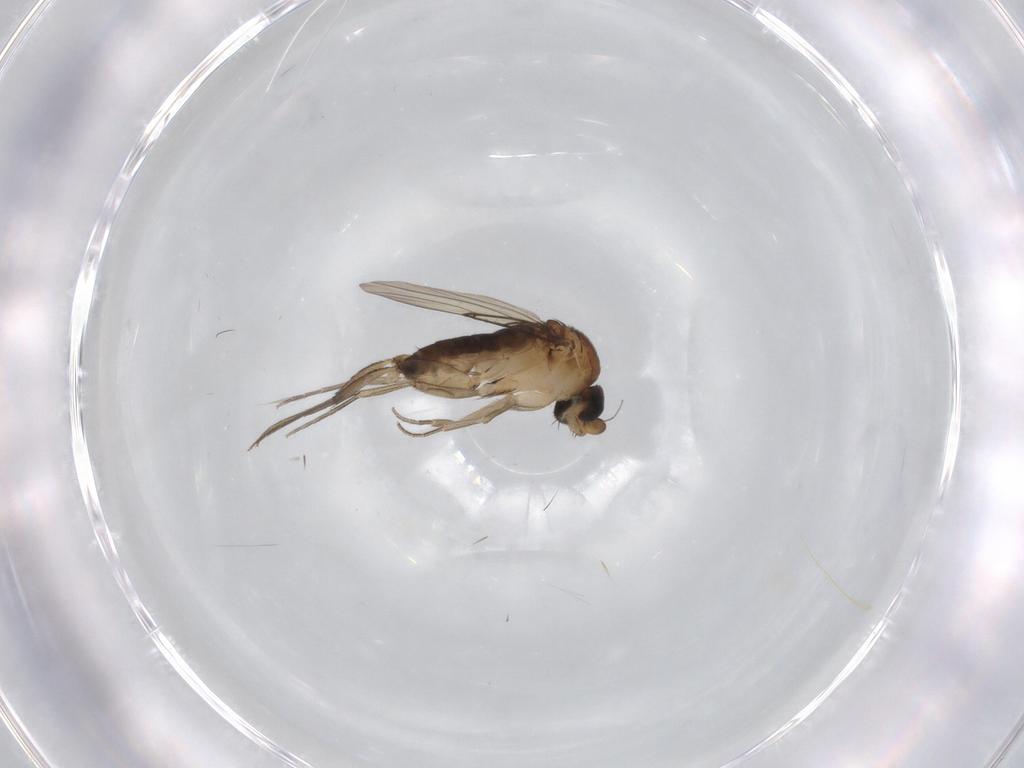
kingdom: Animalia
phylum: Arthropoda
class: Insecta
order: Diptera
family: Phoridae
